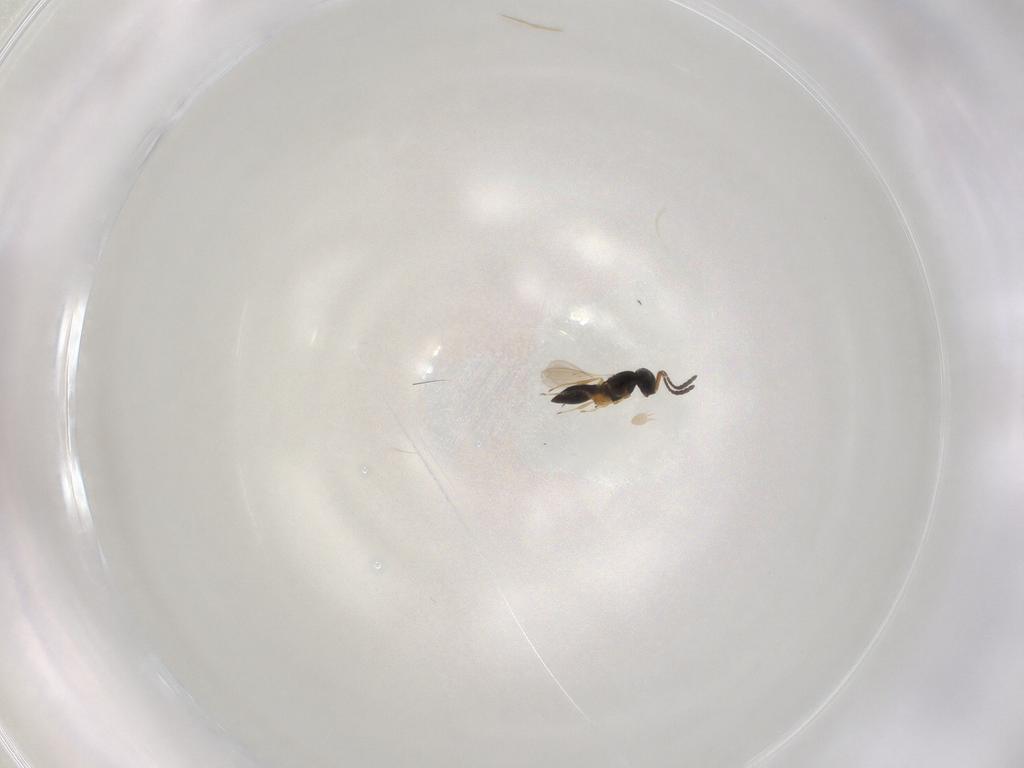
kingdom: Animalia
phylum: Arthropoda
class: Insecta
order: Hymenoptera
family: Scelionidae
